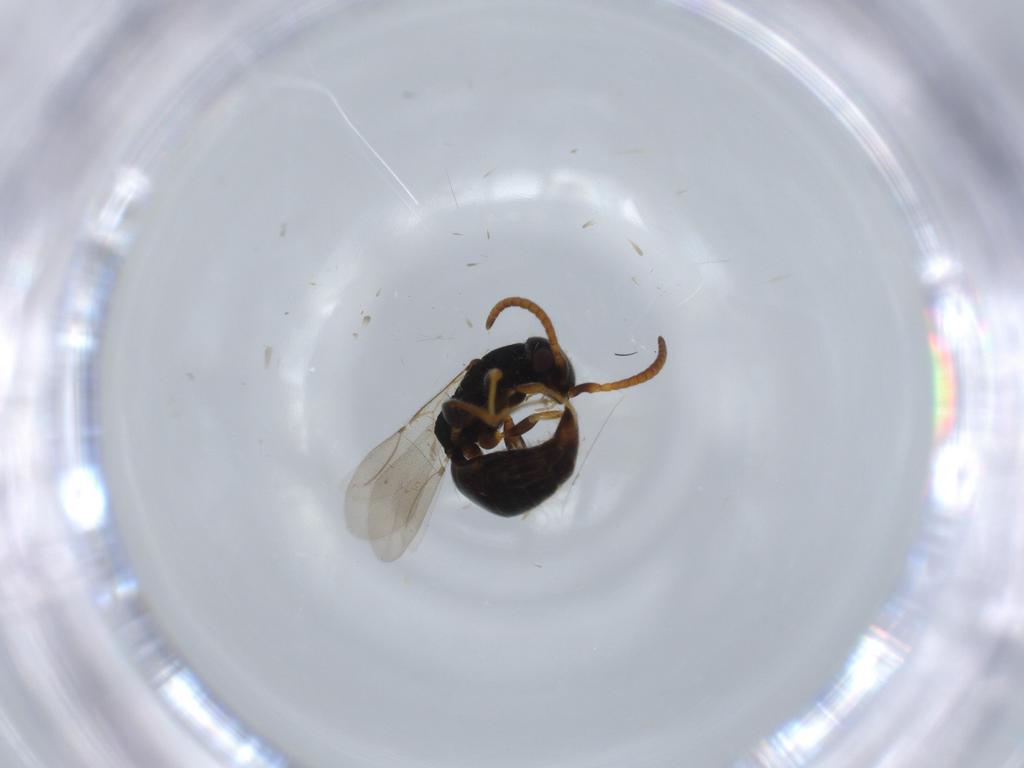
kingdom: Animalia
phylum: Arthropoda
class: Insecta
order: Hymenoptera
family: Bethylidae
